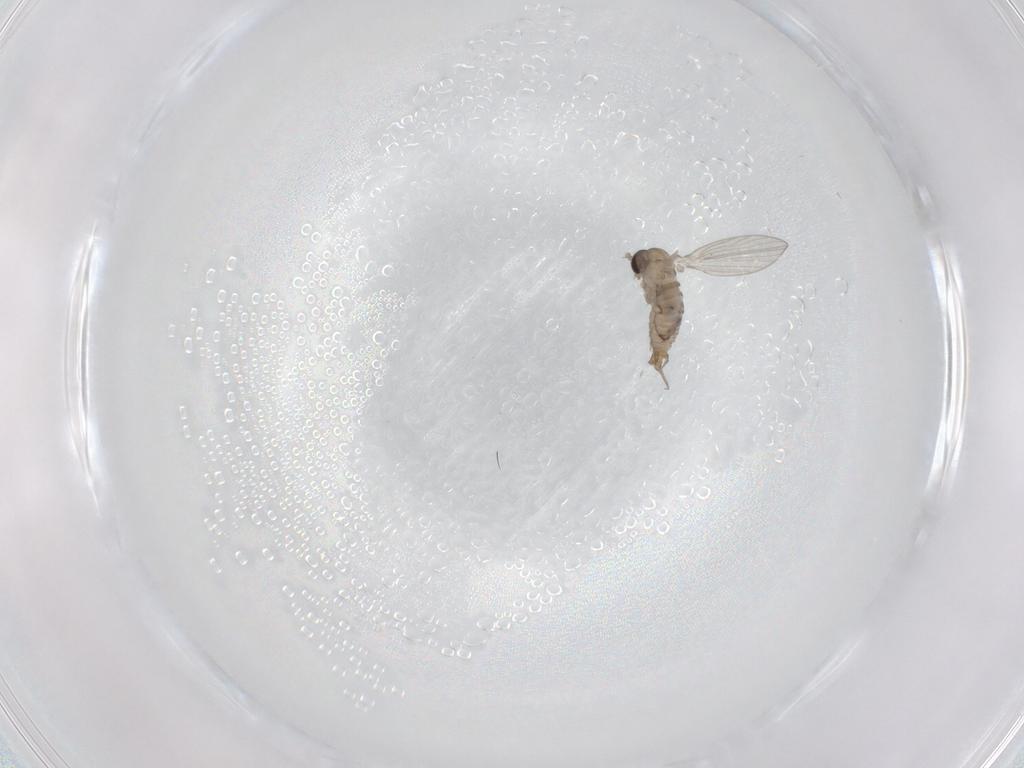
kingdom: Animalia
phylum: Arthropoda
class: Insecta
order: Diptera
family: Psychodidae
